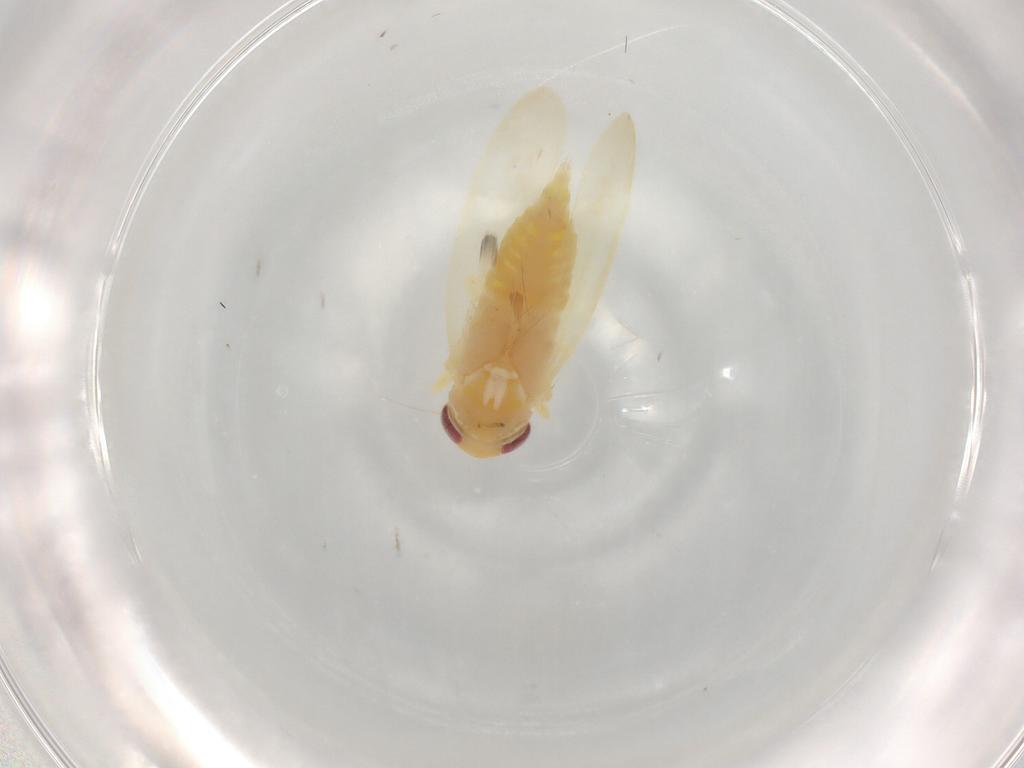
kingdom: Animalia
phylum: Arthropoda
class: Insecta
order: Hemiptera
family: Cicadellidae
